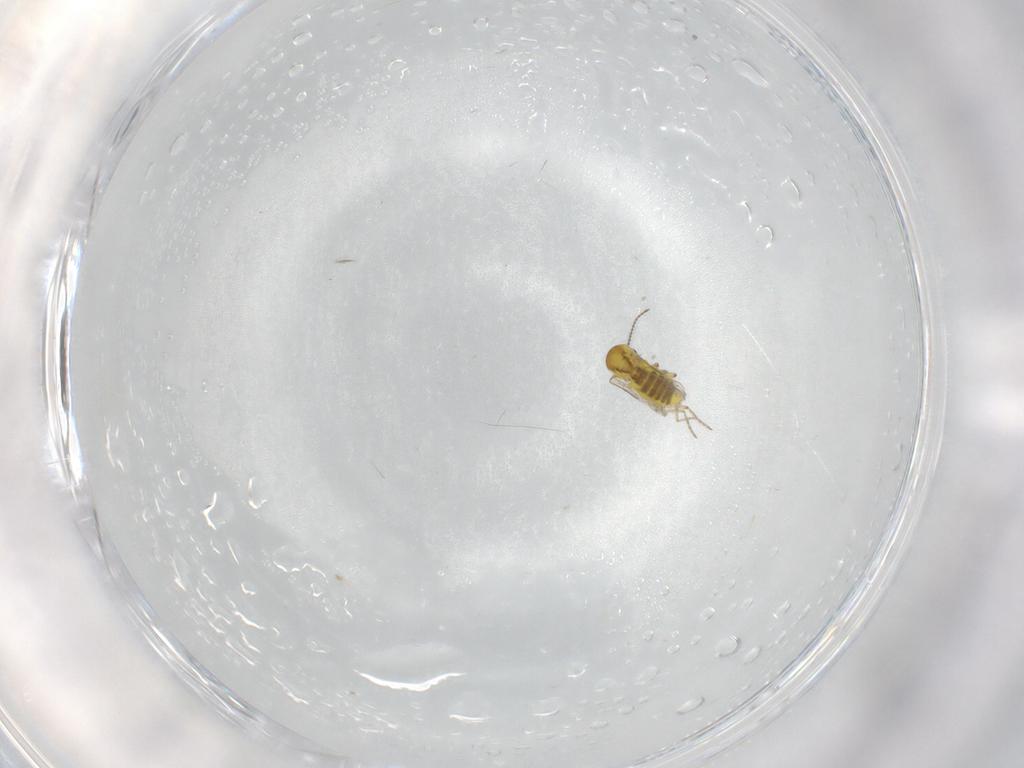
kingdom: Animalia
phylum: Arthropoda
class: Insecta
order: Diptera
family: Ceratopogonidae
